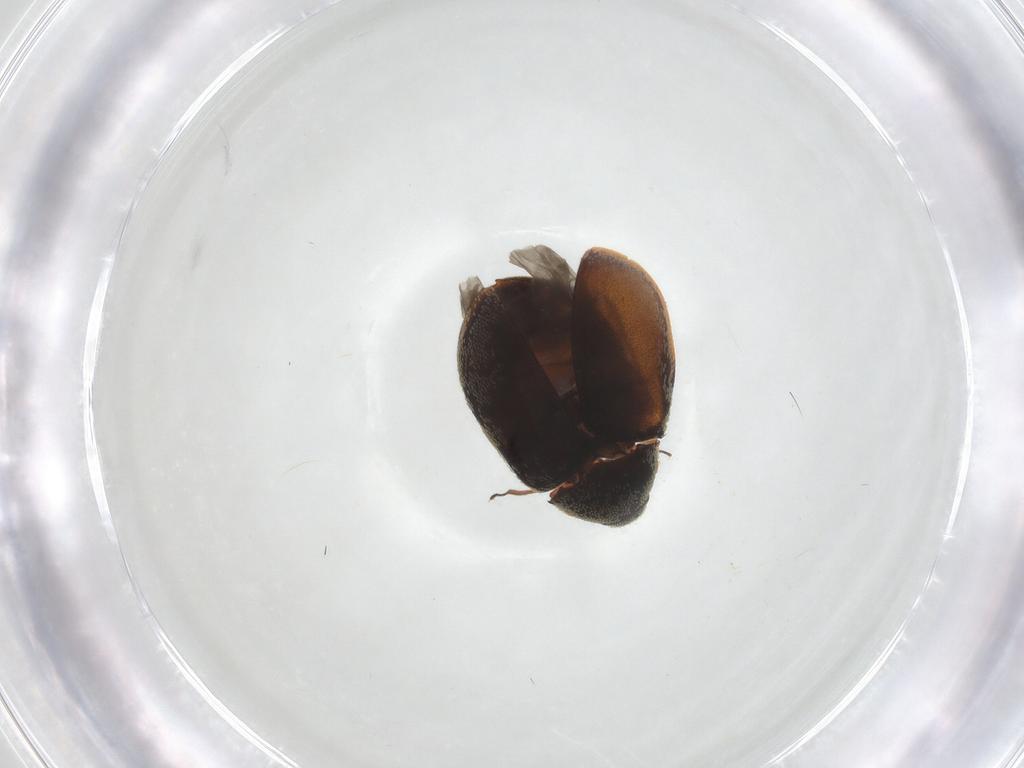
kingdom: Animalia
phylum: Arthropoda
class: Insecta
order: Coleoptera
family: Dermestidae
